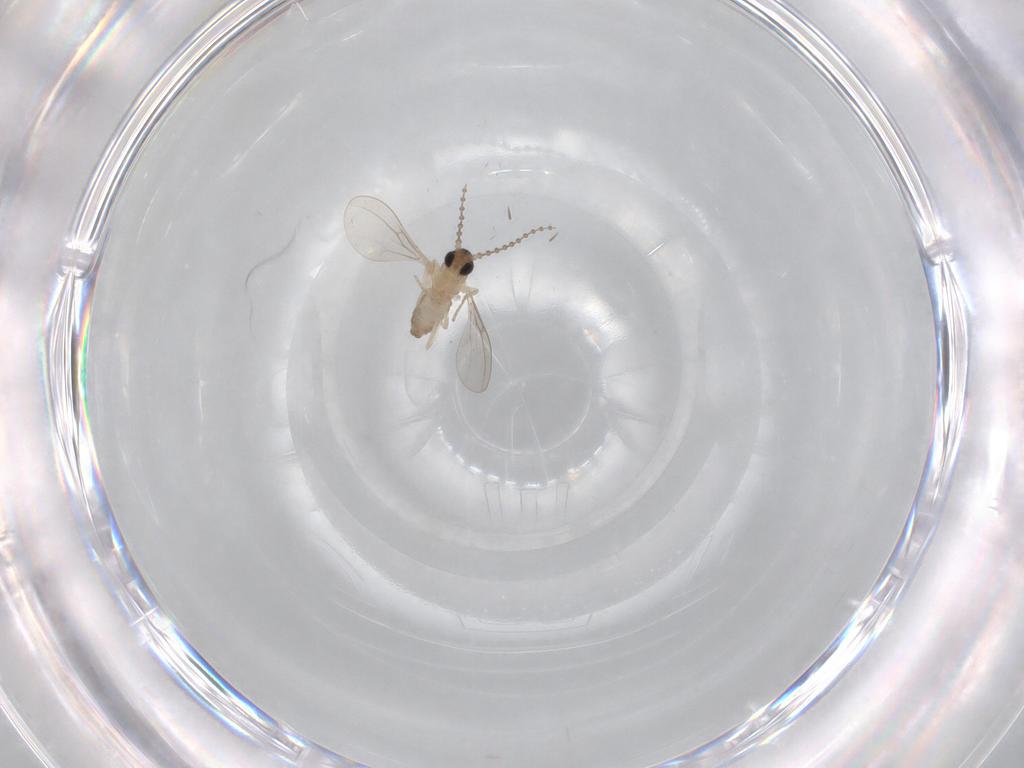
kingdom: Animalia
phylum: Arthropoda
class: Insecta
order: Diptera
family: Cecidomyiidae
